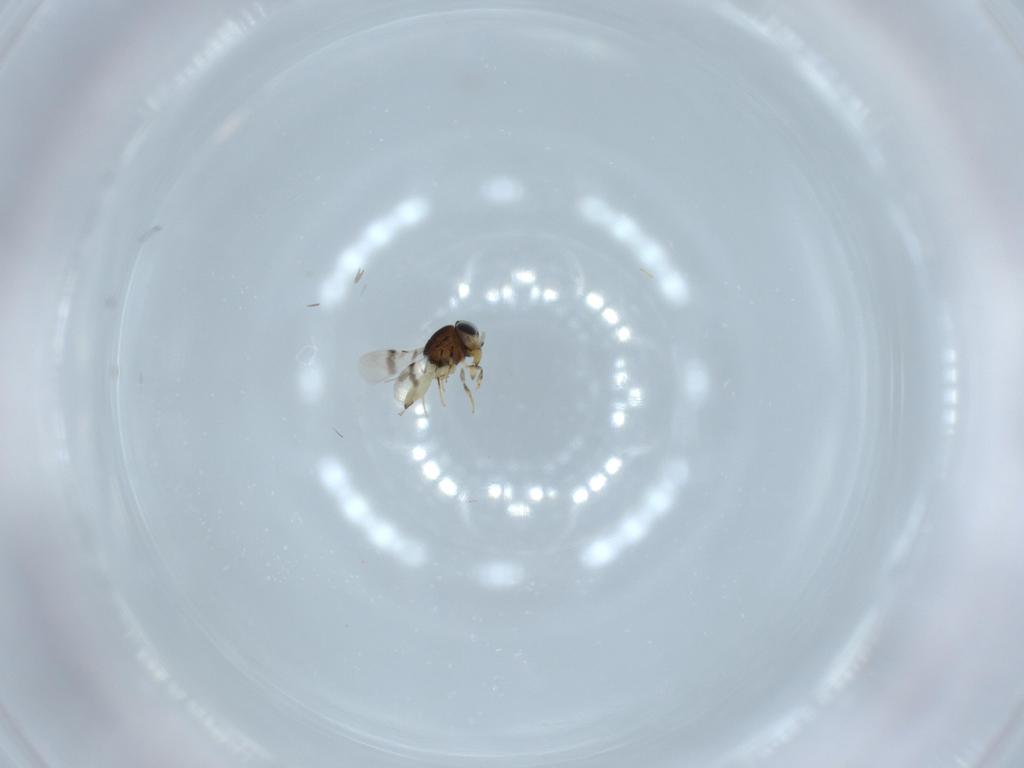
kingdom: Animalia
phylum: Arthropoda
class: Insecta
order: Hymenoptera
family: Scelionidae
